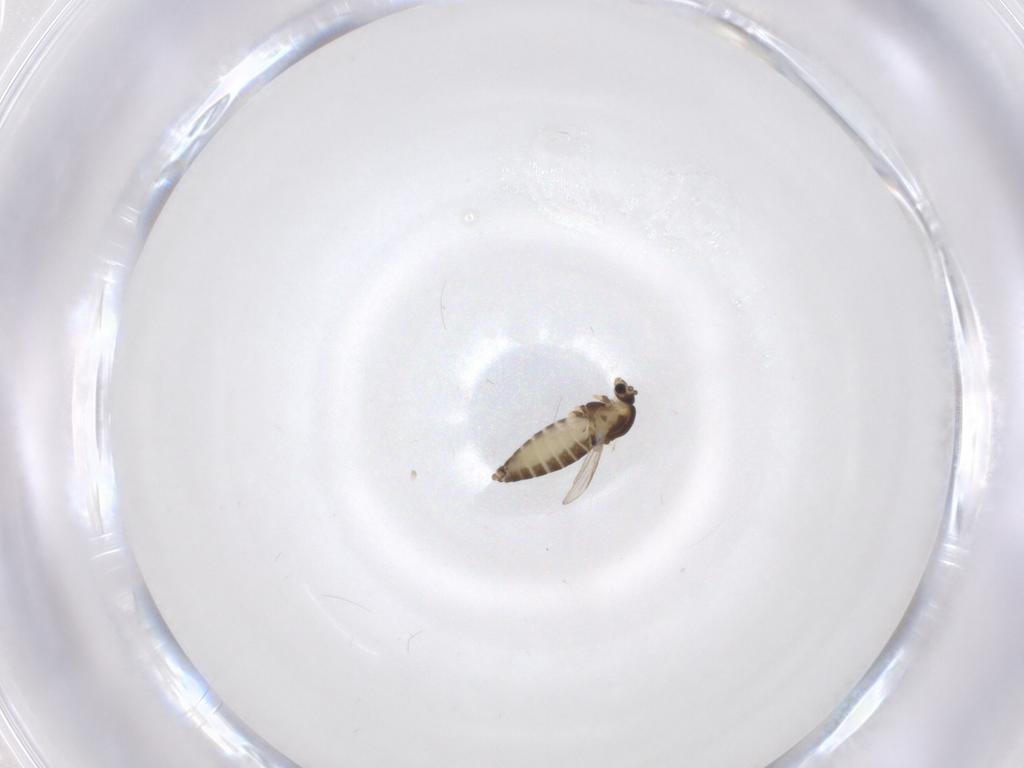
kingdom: Animalia
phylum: Arthropoda
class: Insecta
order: Diptera
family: Chironomidae
